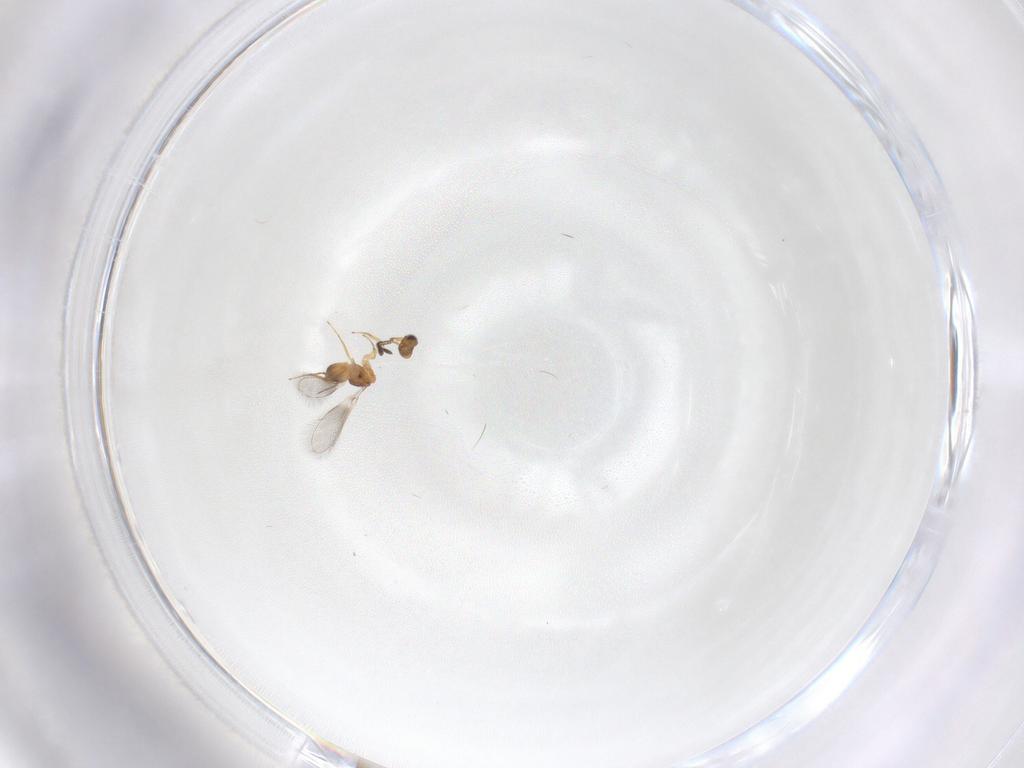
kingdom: Animalia
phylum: Arthropoda
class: Insecta
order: Hymenoptera
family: Mymaridae
